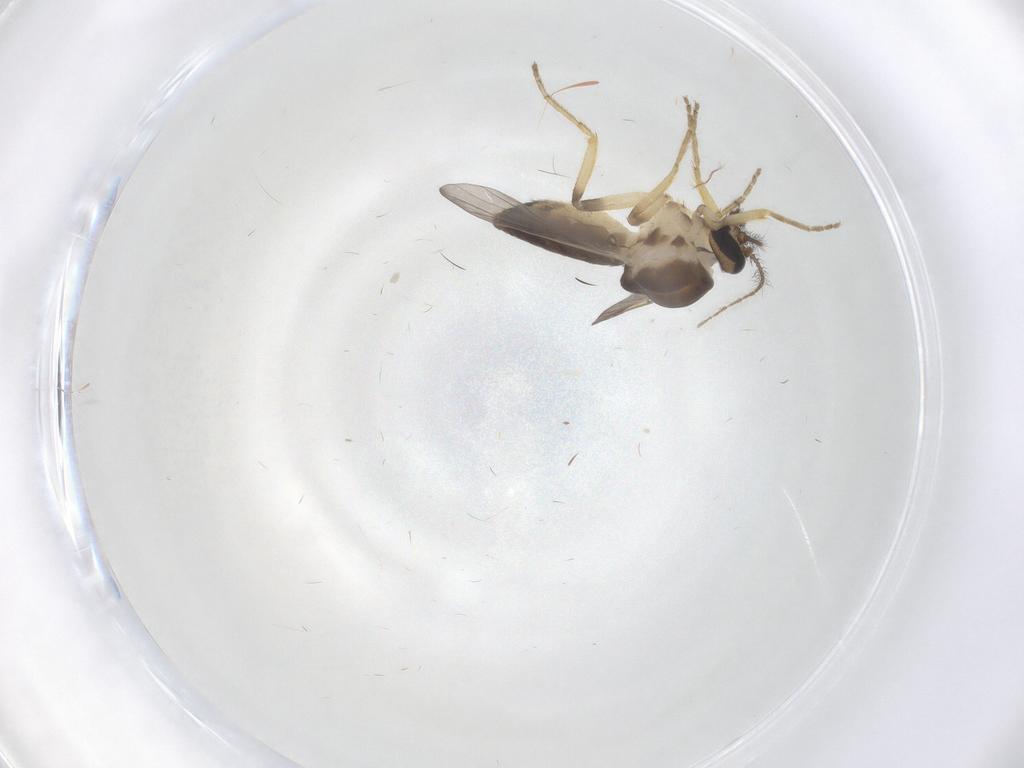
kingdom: Animalia
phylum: Arthropoda
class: Insecta
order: Diptera
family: Ceratopogonidae
